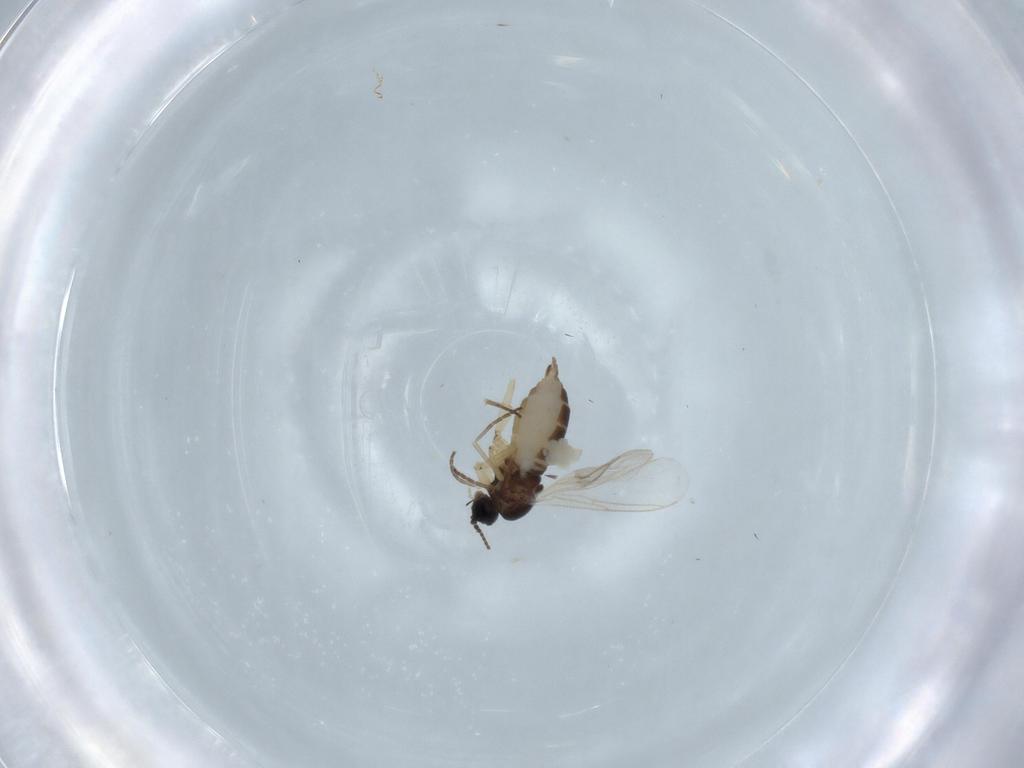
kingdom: Animalia
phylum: Arthropoda
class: Insecta
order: Diptera
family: Sciaridae
